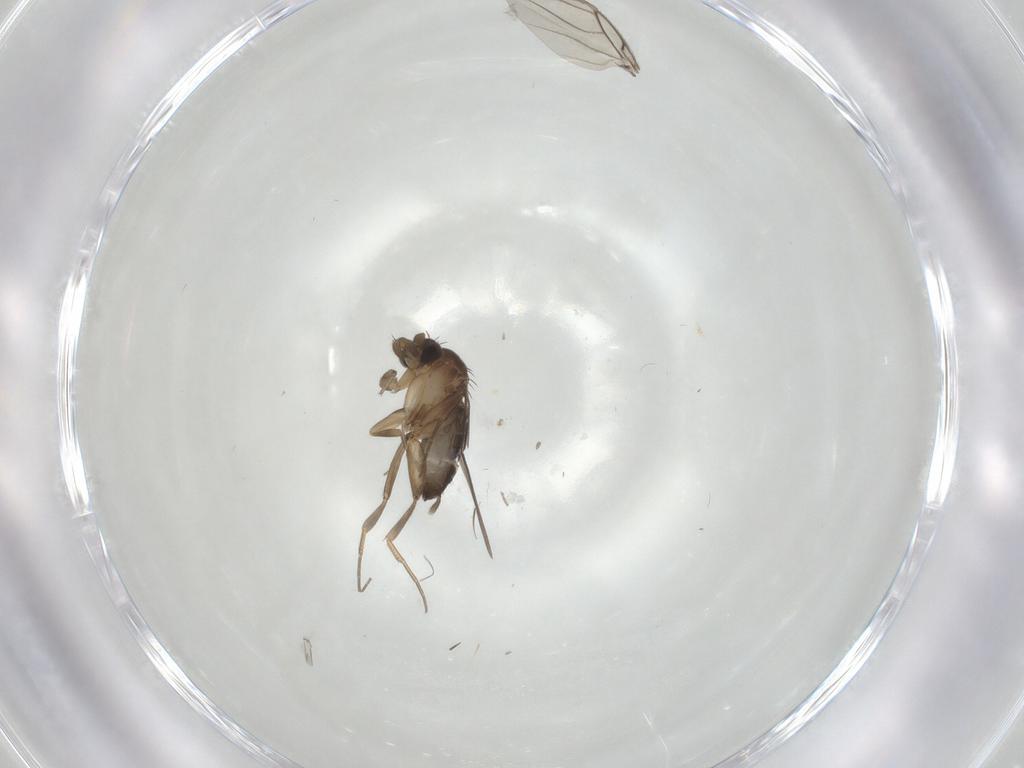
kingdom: Animalia
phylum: Arthropoda
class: Insecta
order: Diptera
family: Phoridae
